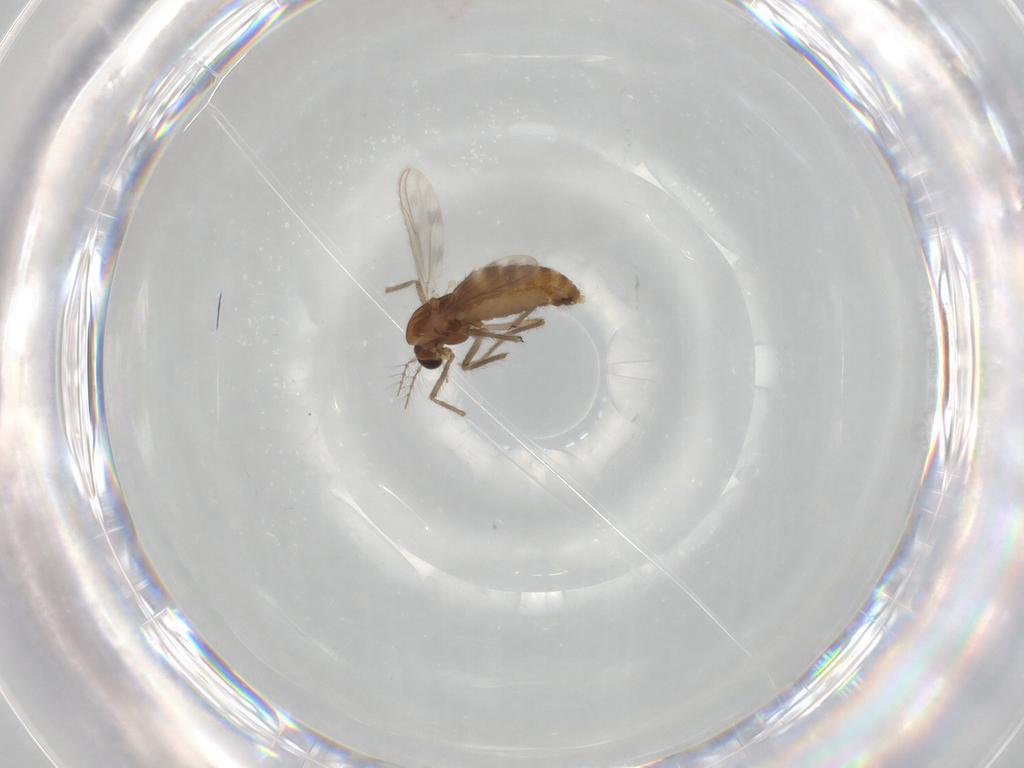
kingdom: Animalia
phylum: Arthropoda
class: Insecta
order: Diptera
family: Chironomidae
